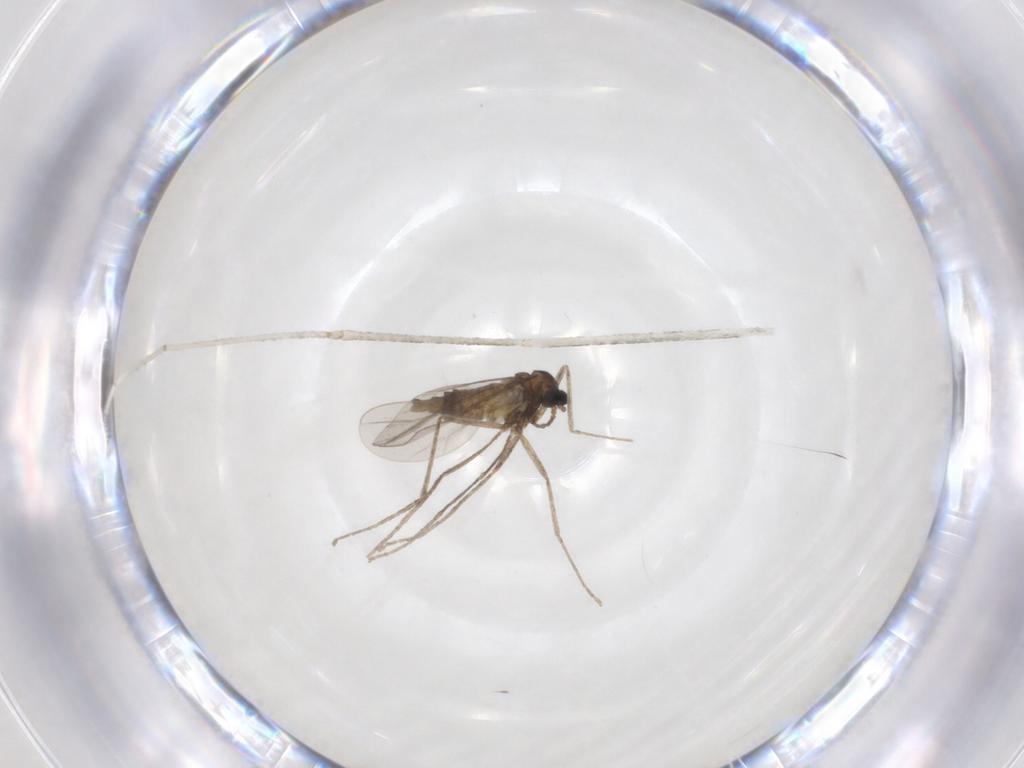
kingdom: Animalia
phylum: Arthropoda
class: Insecta
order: Diptera
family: Cecidomyiidae
